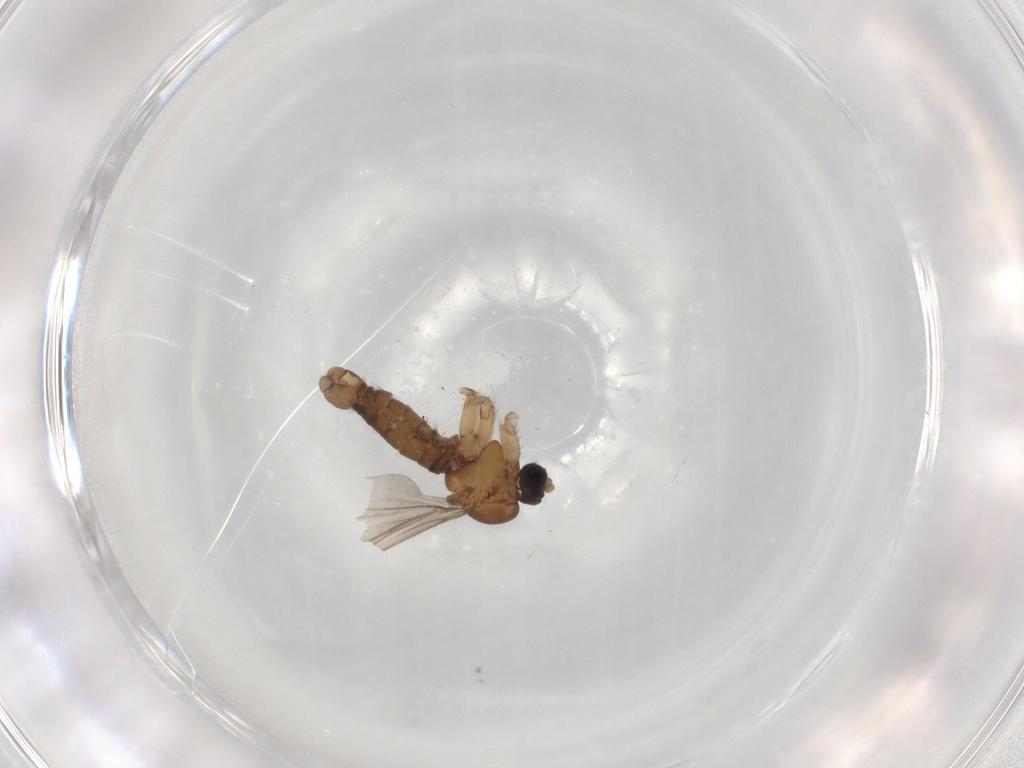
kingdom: Animalia
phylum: Arthropoda
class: Insecta
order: Diptera
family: Sciaridae
